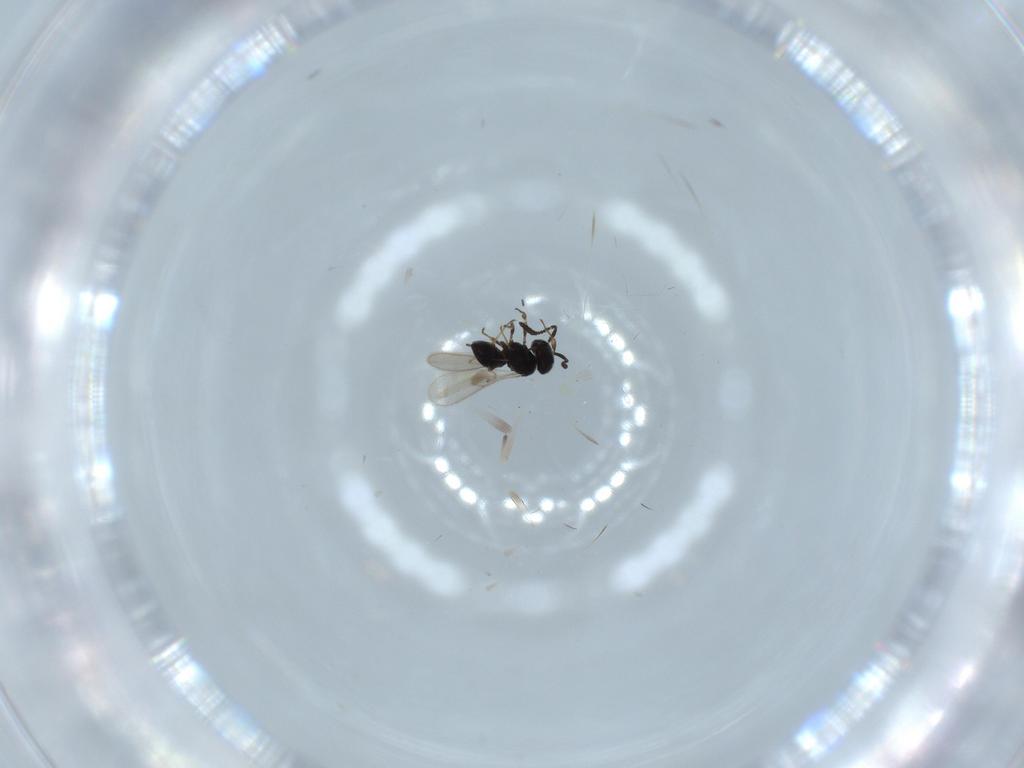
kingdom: Animalia
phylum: Arthropoda
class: Insecta
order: Hymenoptera
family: Scelionidae
